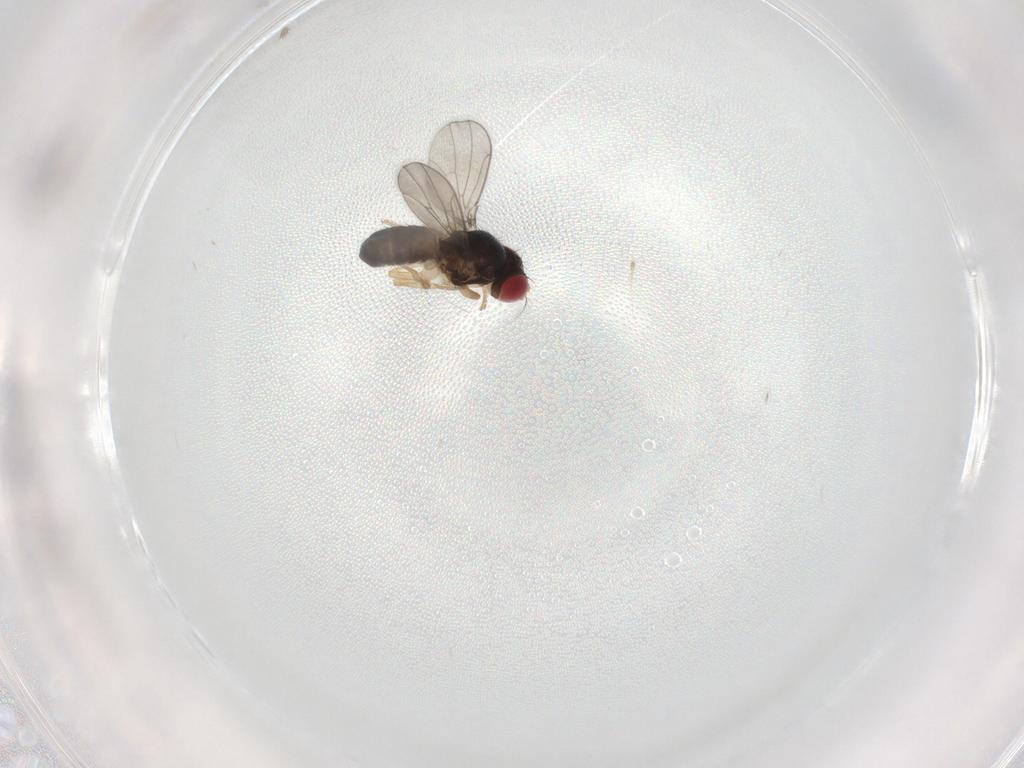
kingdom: Animalia
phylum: Arthropoda
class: Insecta
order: Diptera
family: Drosophilidae
